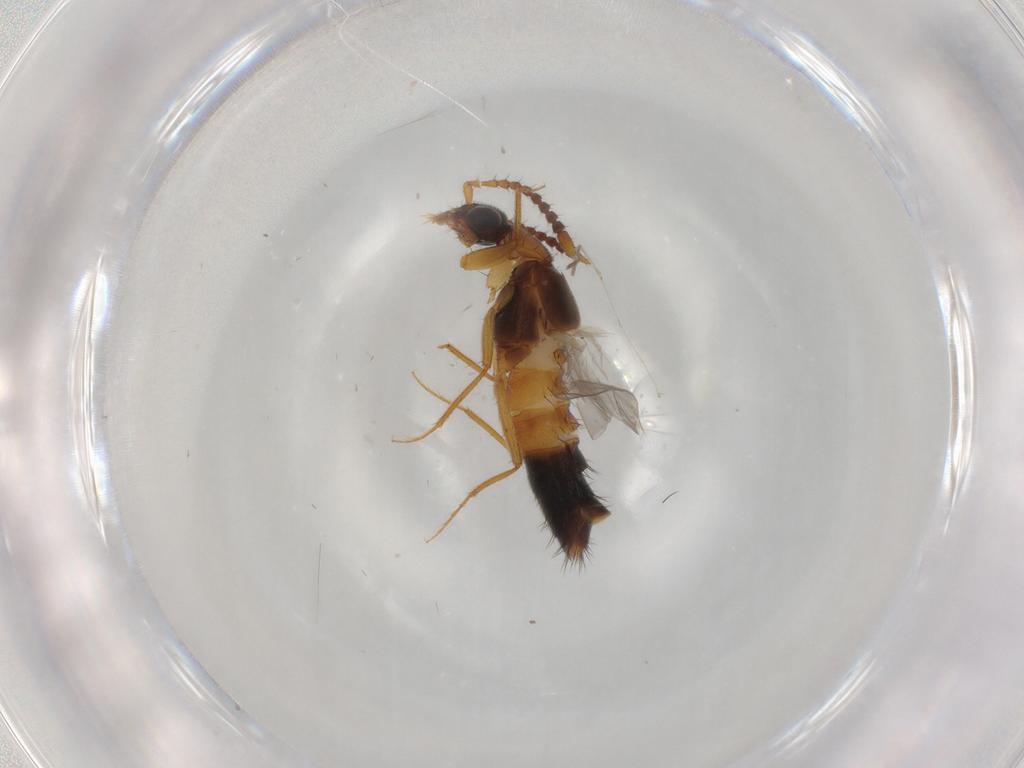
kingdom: Animalia
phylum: Arthropoda
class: Insecta
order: Coleoptera
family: Staphylinidae
